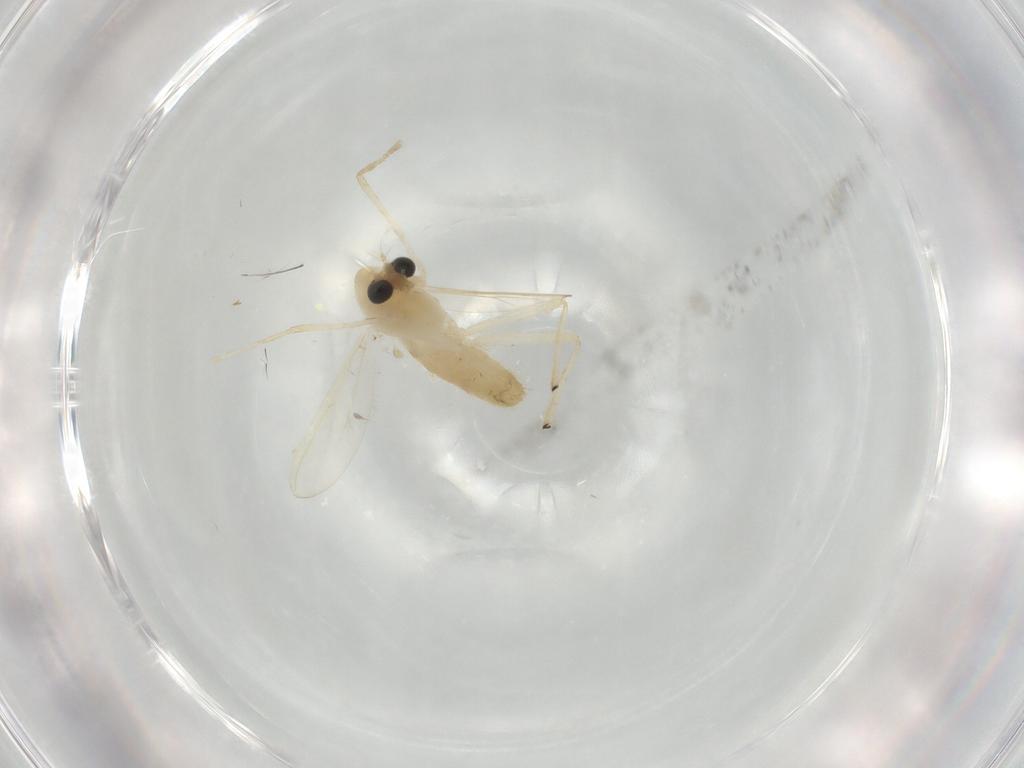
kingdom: Animalia
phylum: Arthropoda
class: Insecta
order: Diptera
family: Chironomidae
